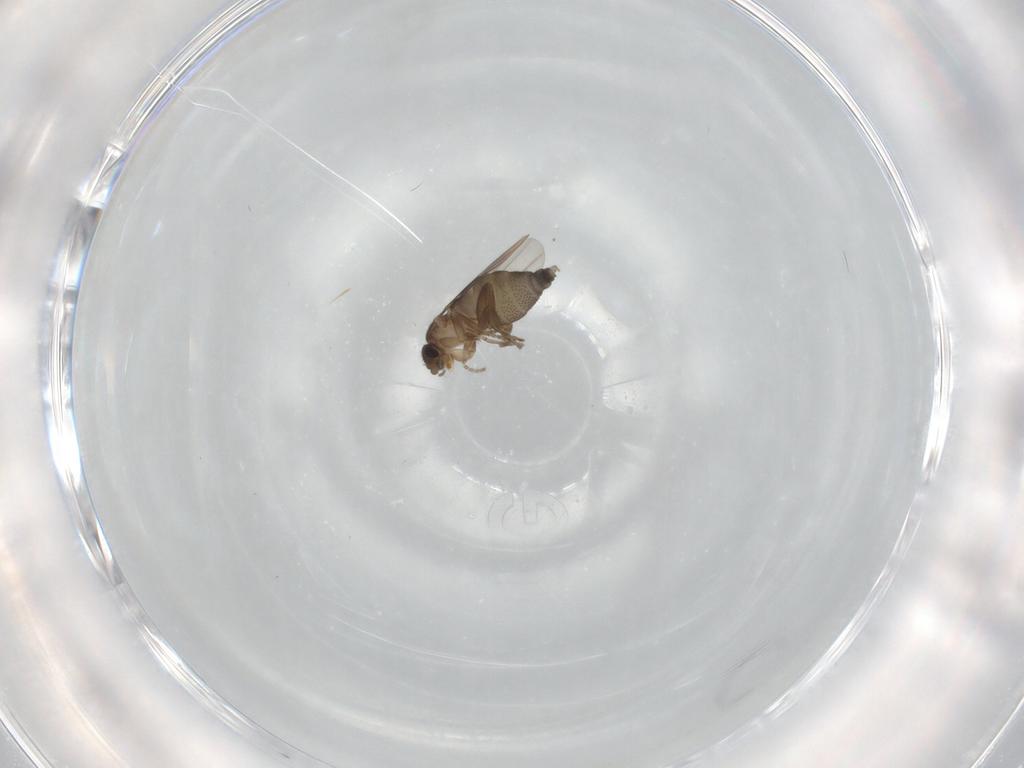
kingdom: Animalia
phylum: Arthropoda
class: Insecta
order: Diptera
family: Phoridae
